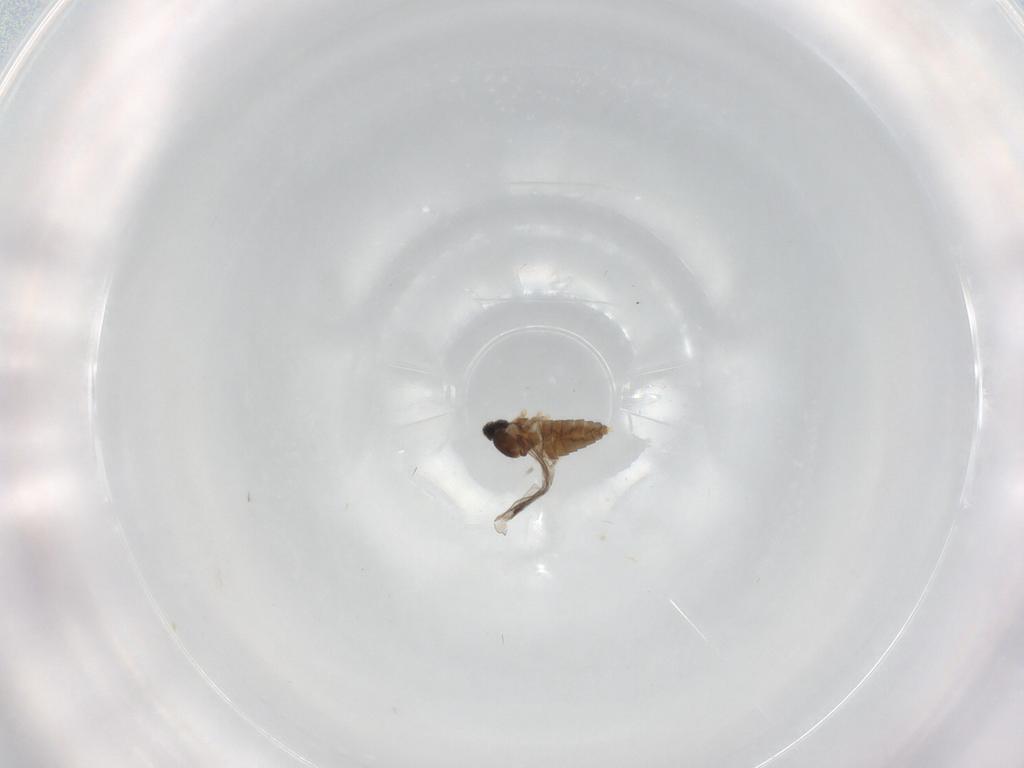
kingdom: Animalia
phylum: Arthropoda
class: Insecta
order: Diptera
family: Cecidomyiidae
